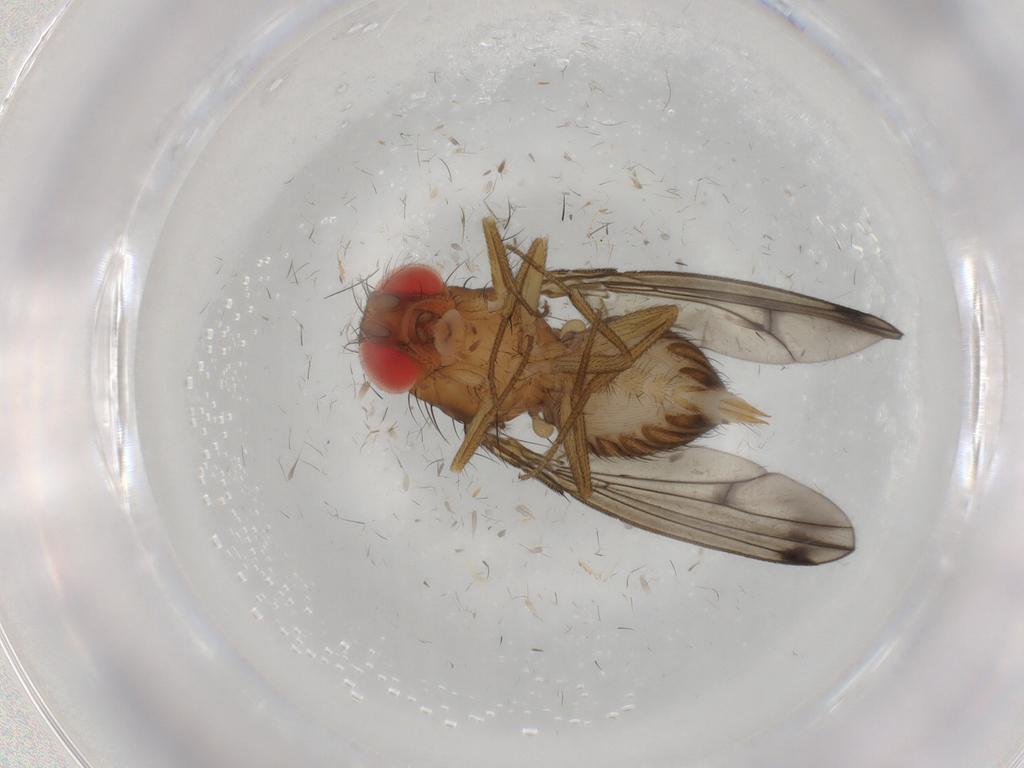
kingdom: Animalia
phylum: Arthropoda
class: Insecta
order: Diptera
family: Drosophilidae
